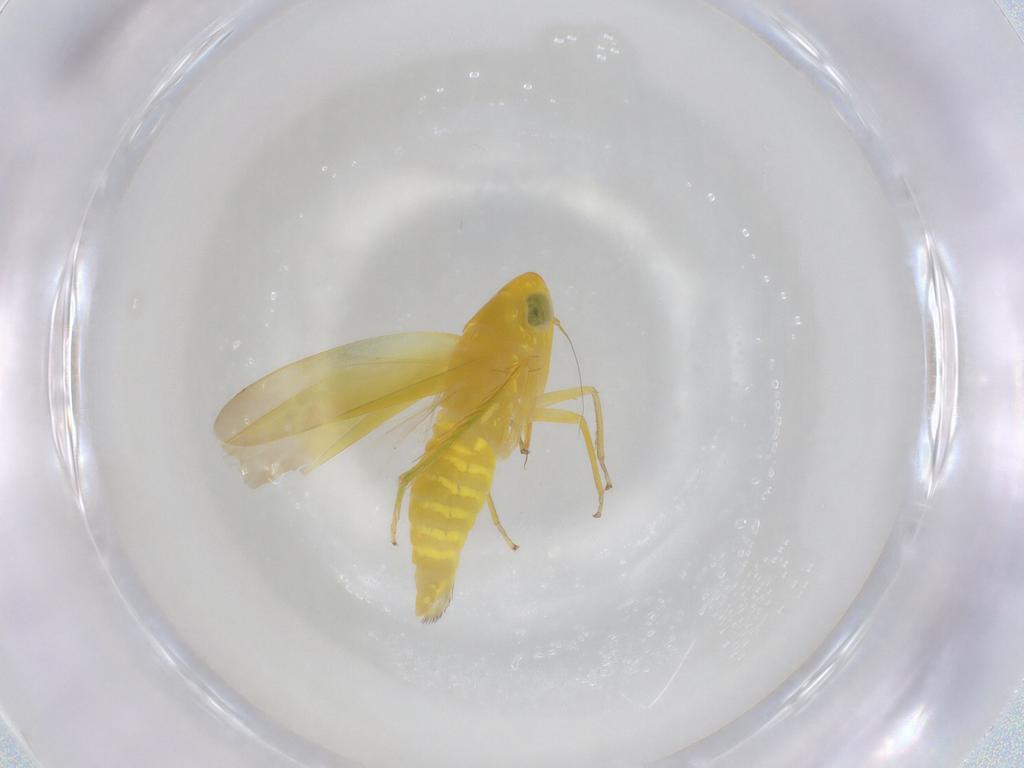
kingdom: Animalia
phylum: Arthropoda
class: Insecta
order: Hemiptera
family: Cicadellidae
